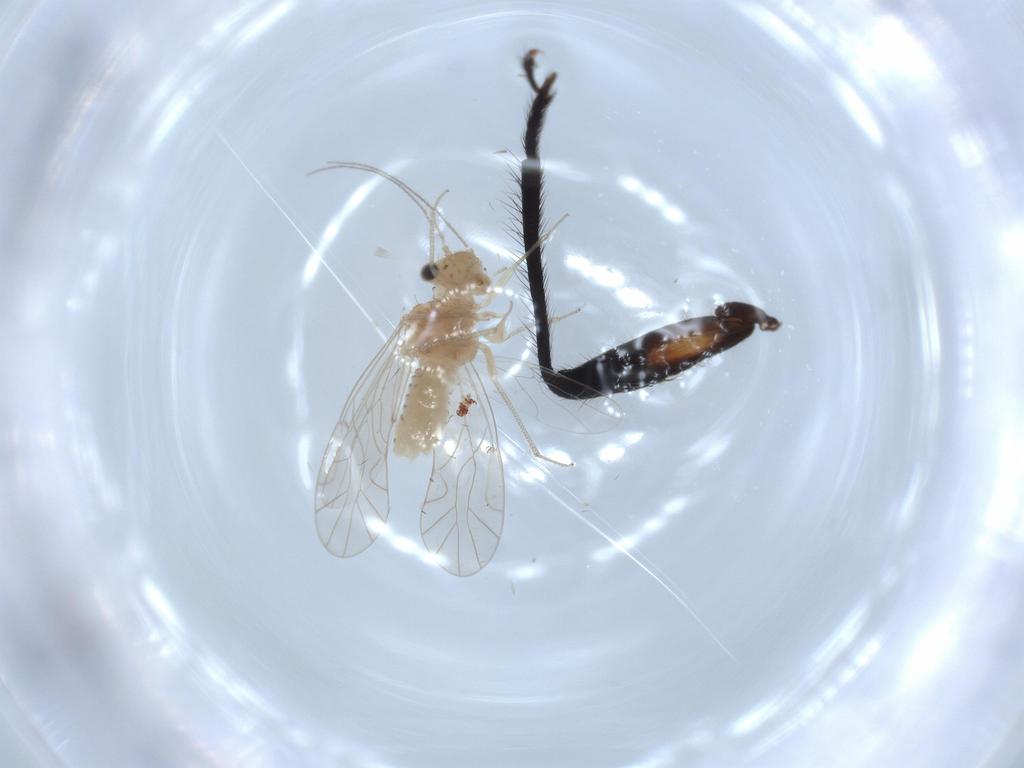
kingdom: Animalia
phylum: Arthropoda
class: Insecta
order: Psocodea
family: Lachesillidae
